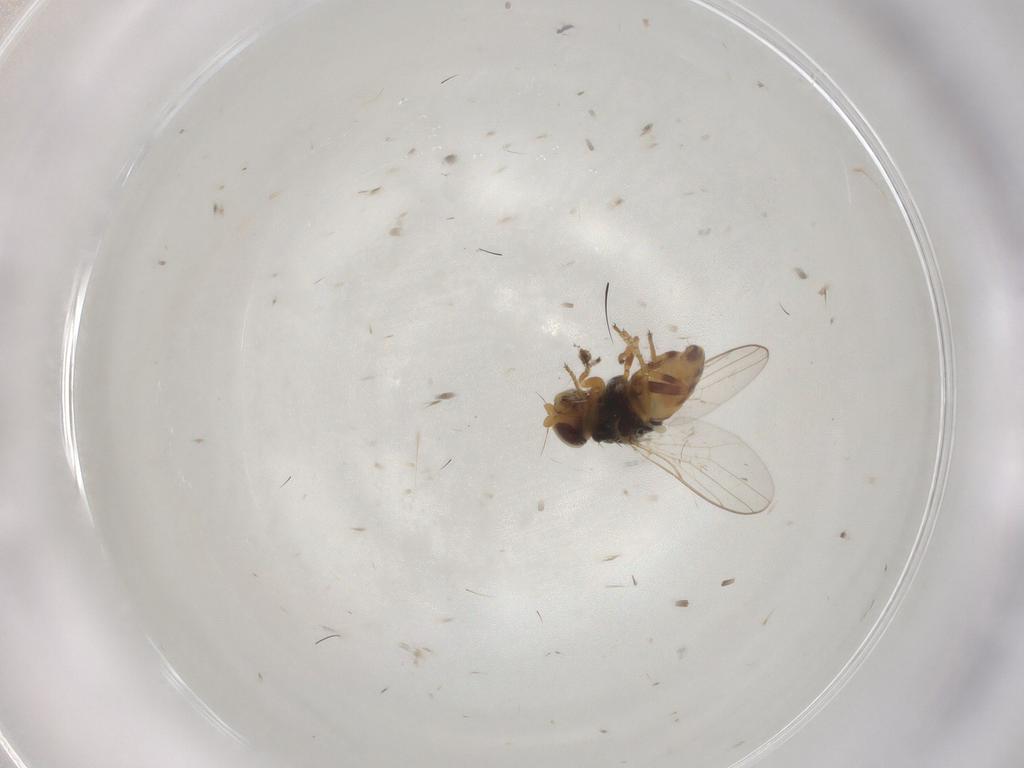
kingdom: Animalia
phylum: Arthropoda
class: Insecta
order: Diptera
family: Chloropidae
